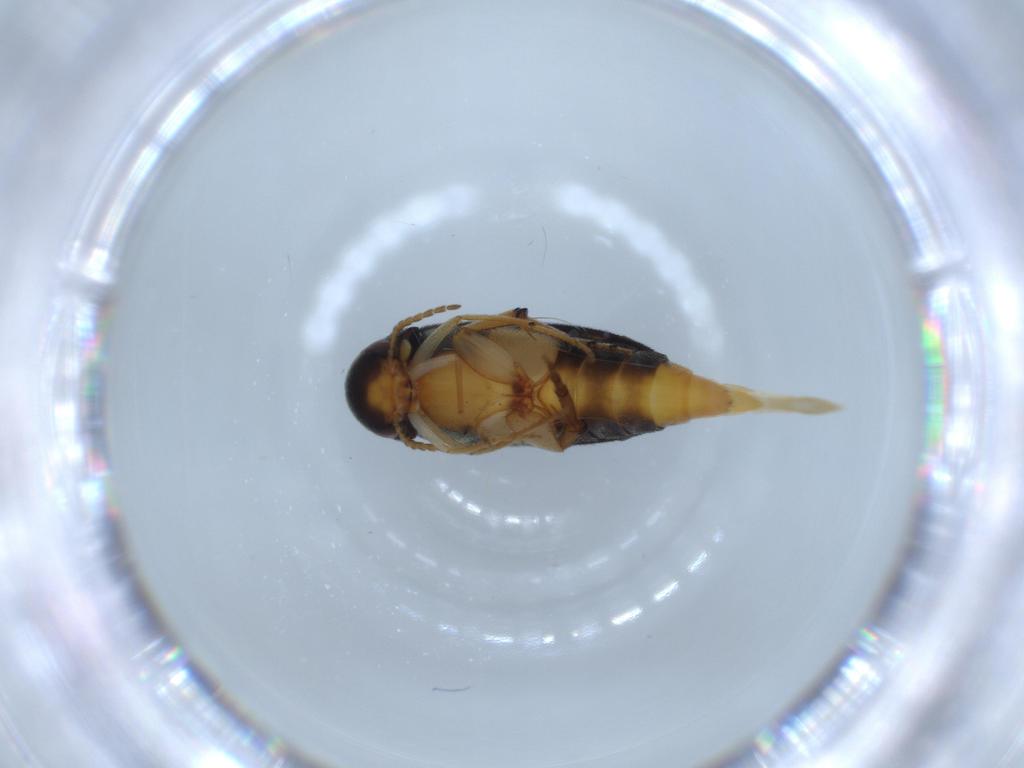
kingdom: Animalia
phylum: Arthropoda
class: Insecta
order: Coleoptera
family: Mordellidae
